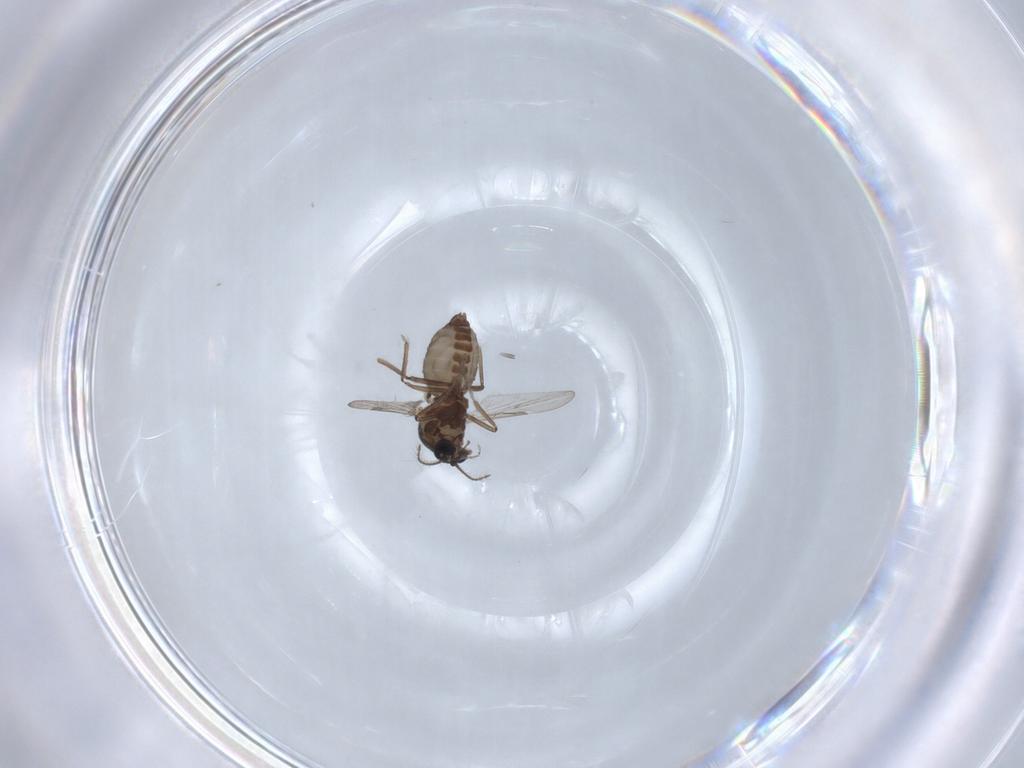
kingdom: Animalia
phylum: Arthropoda
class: Insecta
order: Diptera
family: Ceratopogonidae
